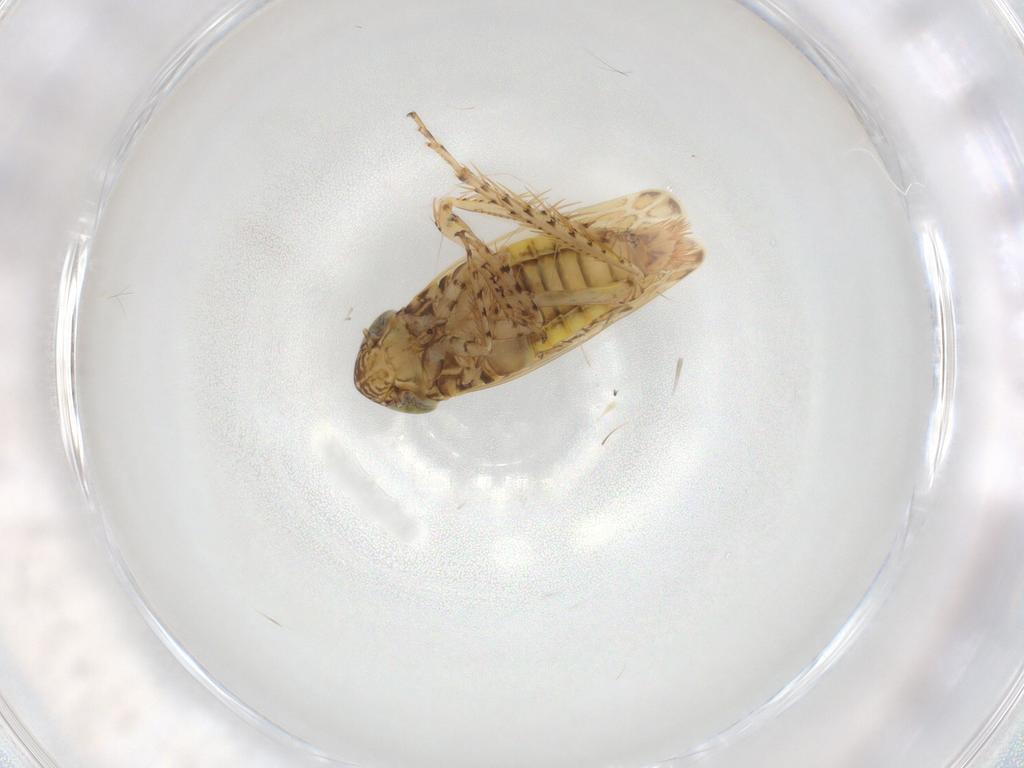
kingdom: Animalia
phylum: Arthropoda
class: Insecta
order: Hemiptera
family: Cicadellidae
